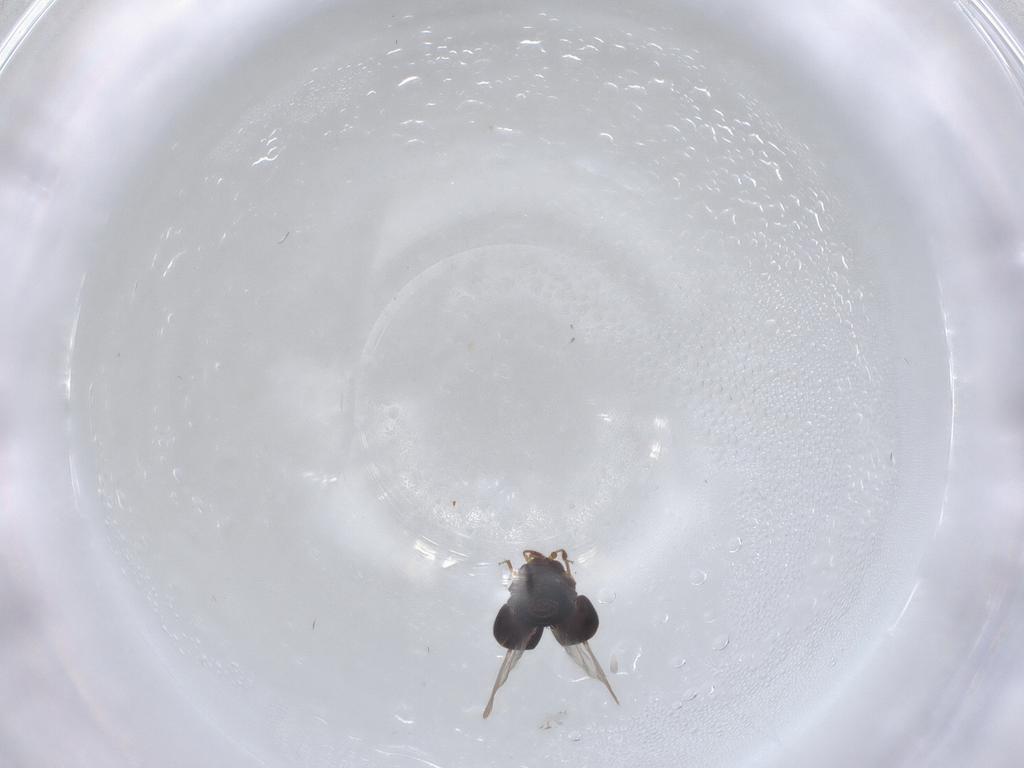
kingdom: Animalia
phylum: Arthropoda
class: Insecta
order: Coleoptera
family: Staphylinidae
